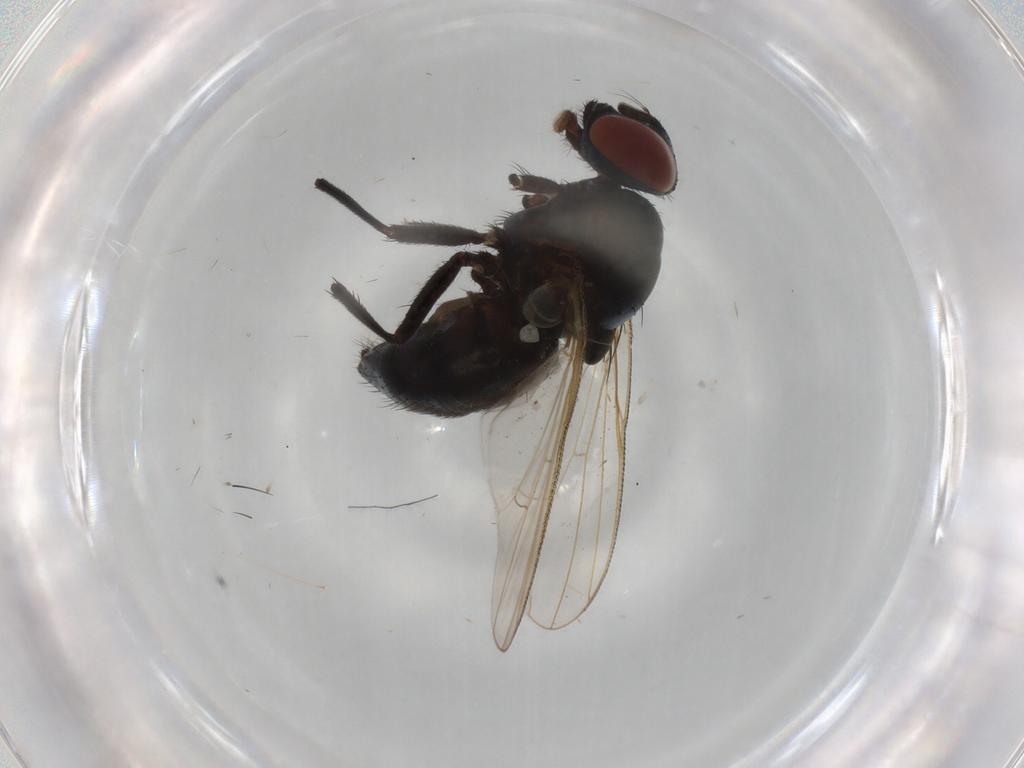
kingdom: Animalia
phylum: Arthropoda
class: Insecta
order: Diptera
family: Muscidae
